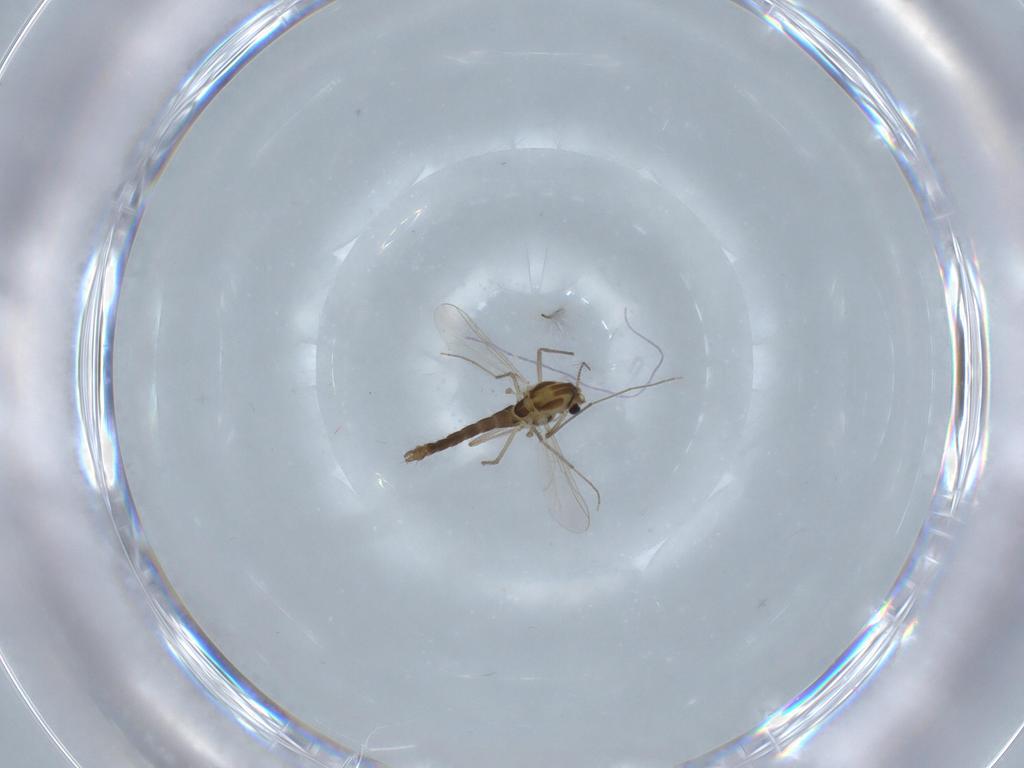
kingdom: Animalia
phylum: Arthropoda
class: Insecta
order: Diptera
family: Chironomidae
